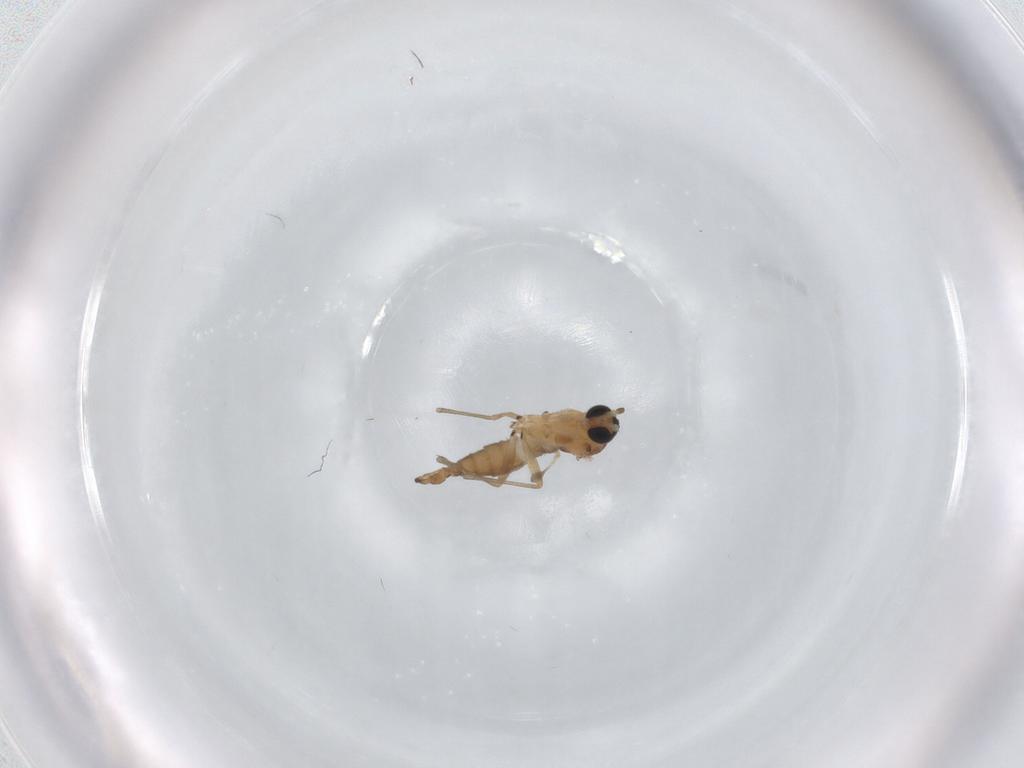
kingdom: Animalia
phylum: Arthropoda
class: Insecta
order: Diptera
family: Sciaridae
